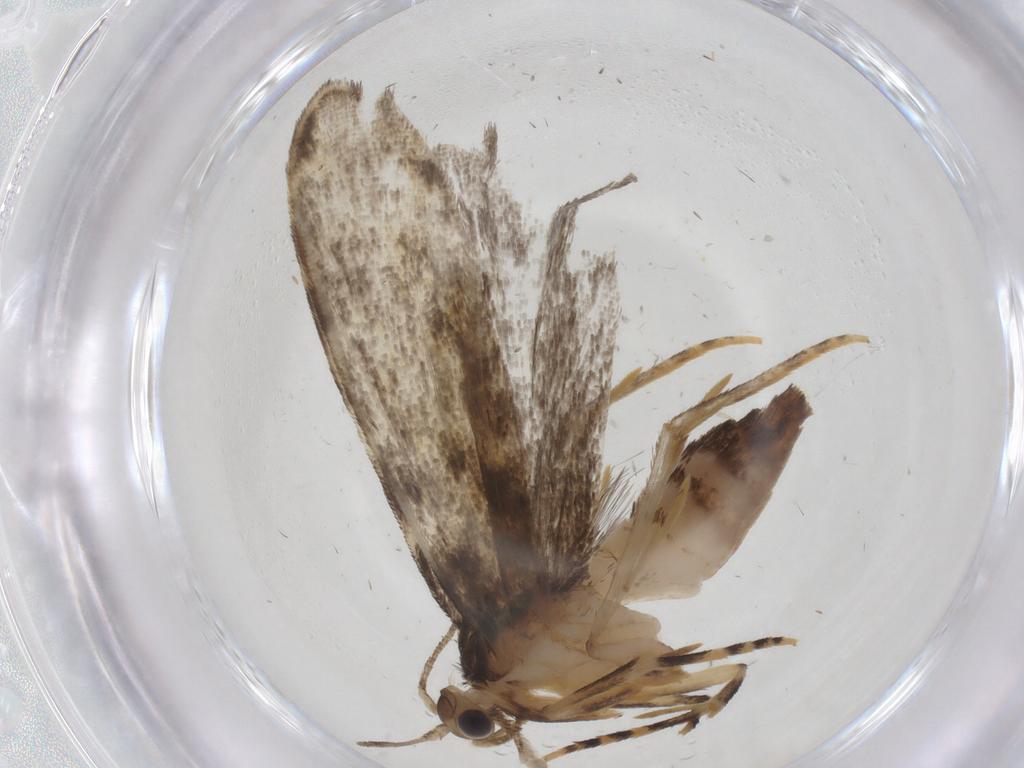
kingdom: Animalia
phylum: Arthropoda
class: Insecta
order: Lepidoptera
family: Dryadaulidae
